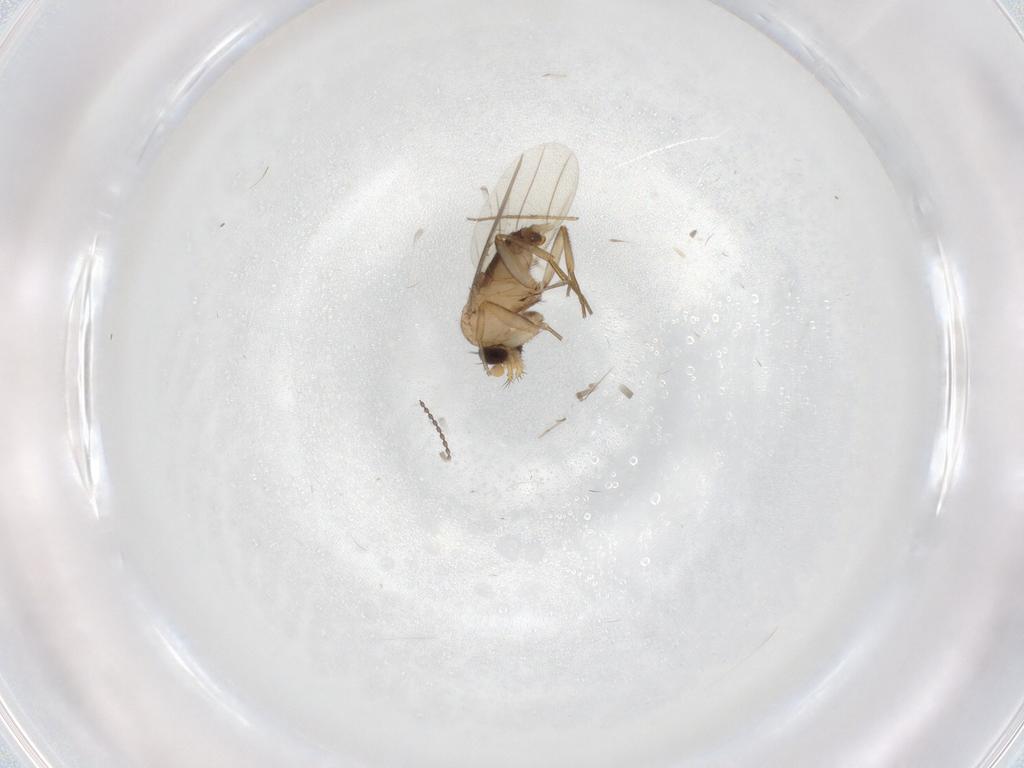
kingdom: Animalia
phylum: Arthropoda
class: Insecta
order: Diptera
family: Chironomidae
